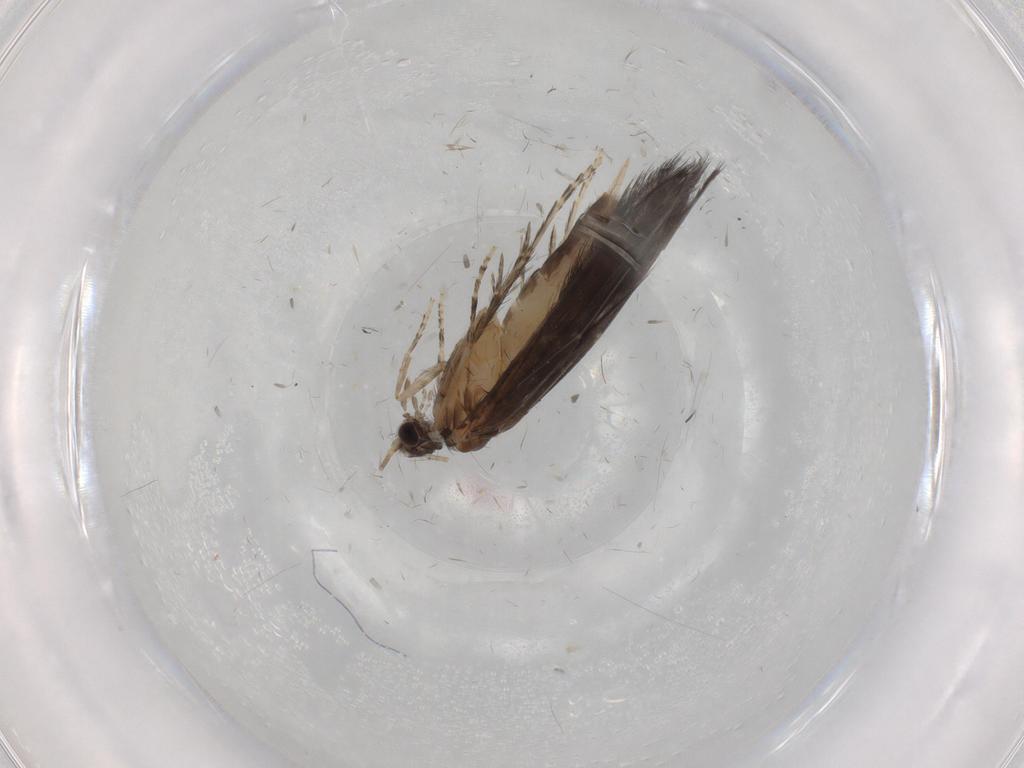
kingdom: Animalia
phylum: Arthropoda
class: Insecta
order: Trichoptera
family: Hydroptilidae
